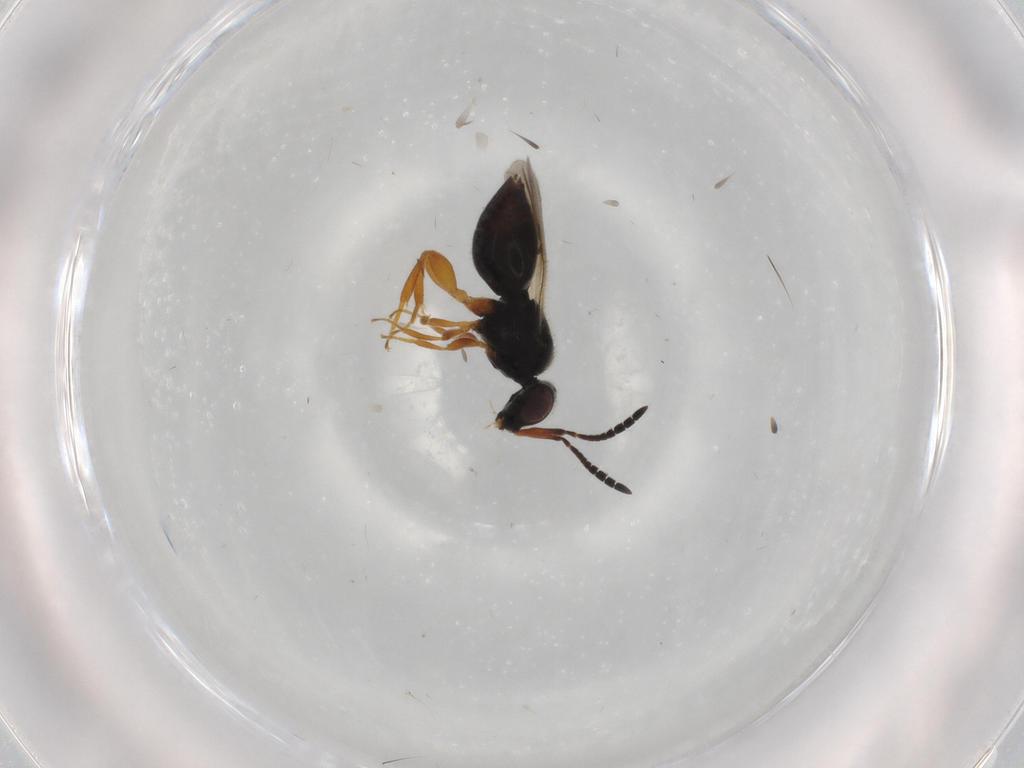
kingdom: Animalia
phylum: Arthropoda
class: Insecta
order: Hymenoptera
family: Ceraphronidae
